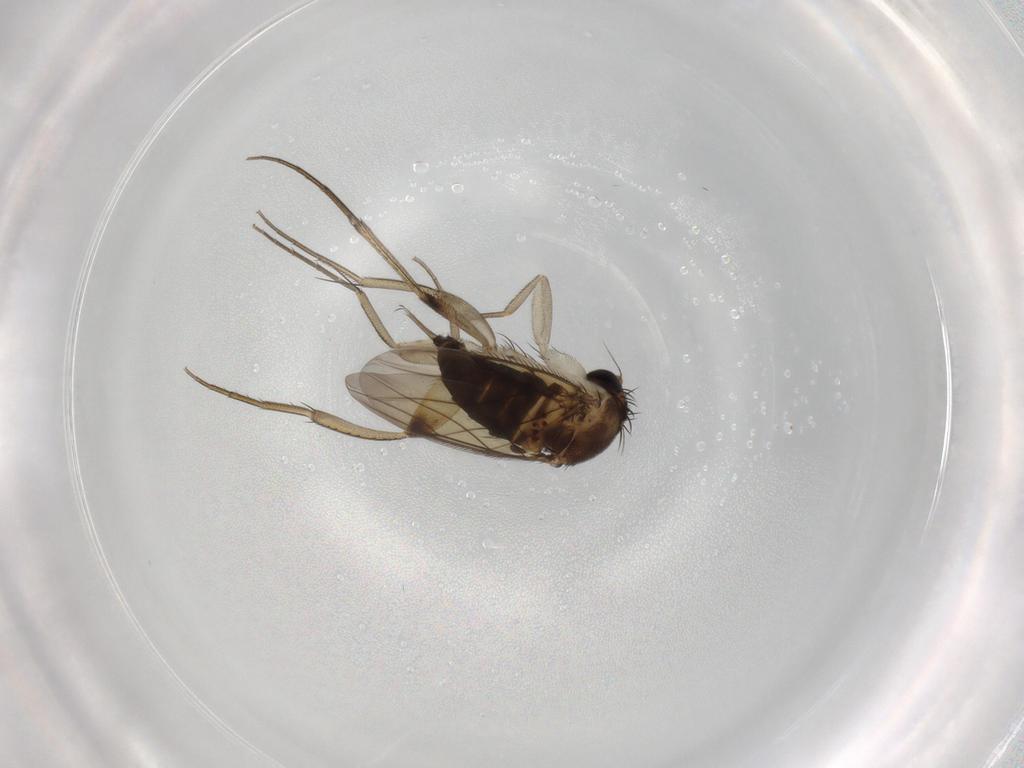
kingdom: Animalia
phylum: Arthropoda
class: Insecta
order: Diptera
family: Phoridae
